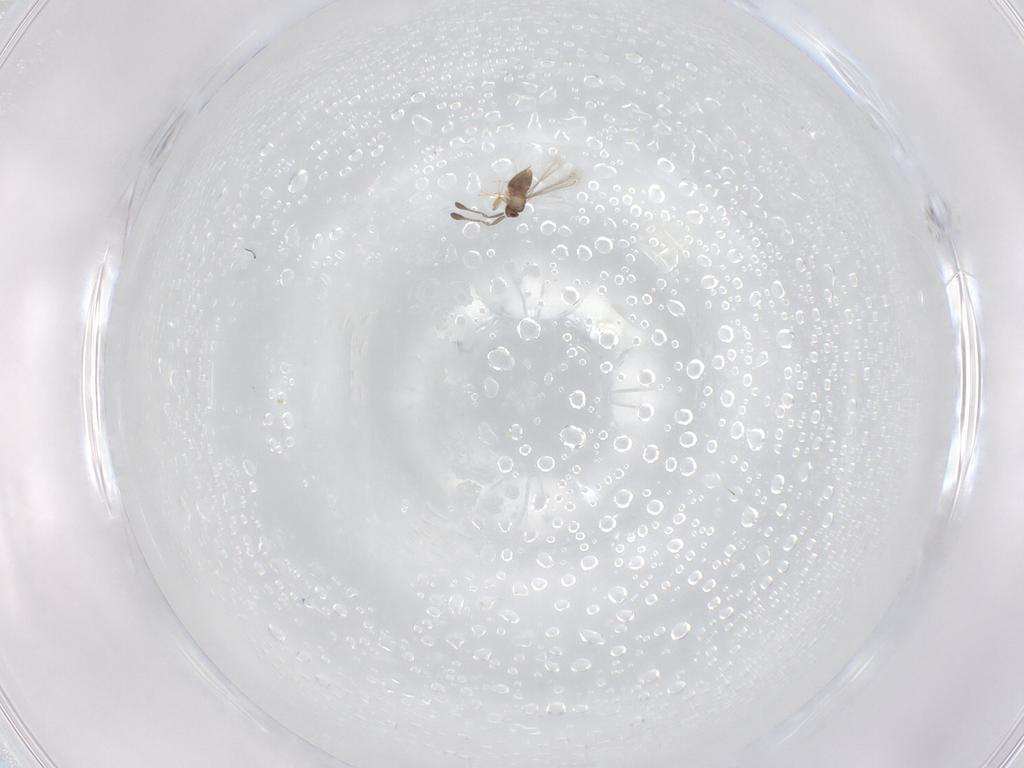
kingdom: Animalia
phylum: Arthropoda
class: Insecta
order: Hymenoptera
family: Mymaridae
